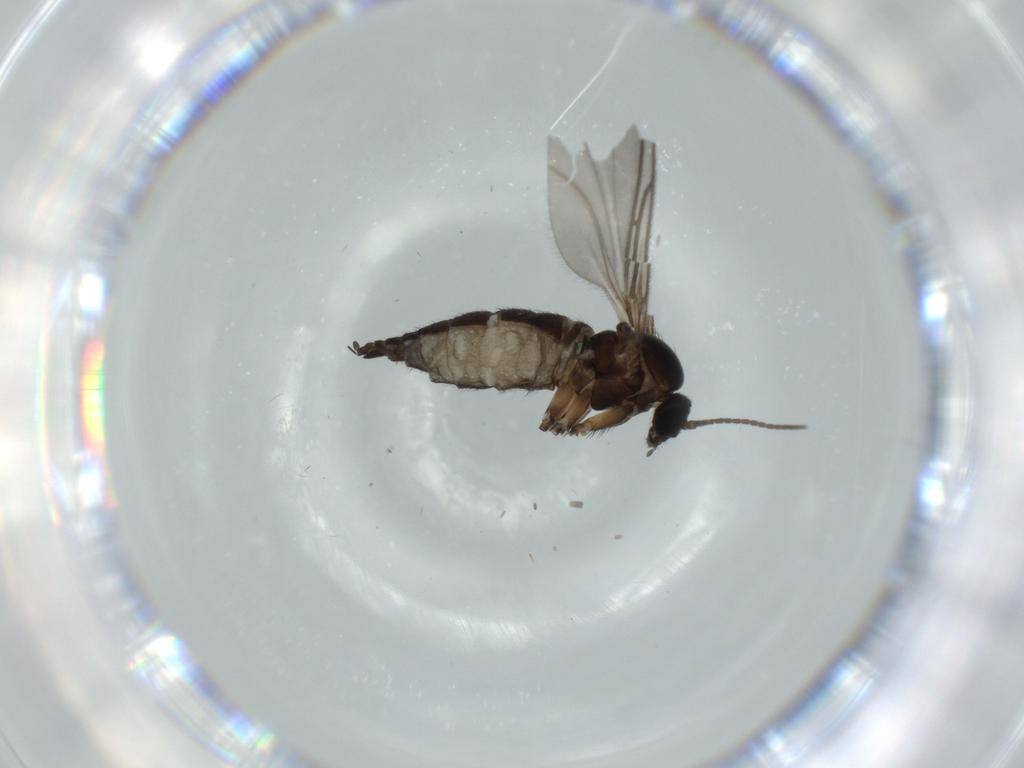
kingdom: Animalia
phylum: Arthropoda
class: Insecta
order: Diptera
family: Sciaridae
